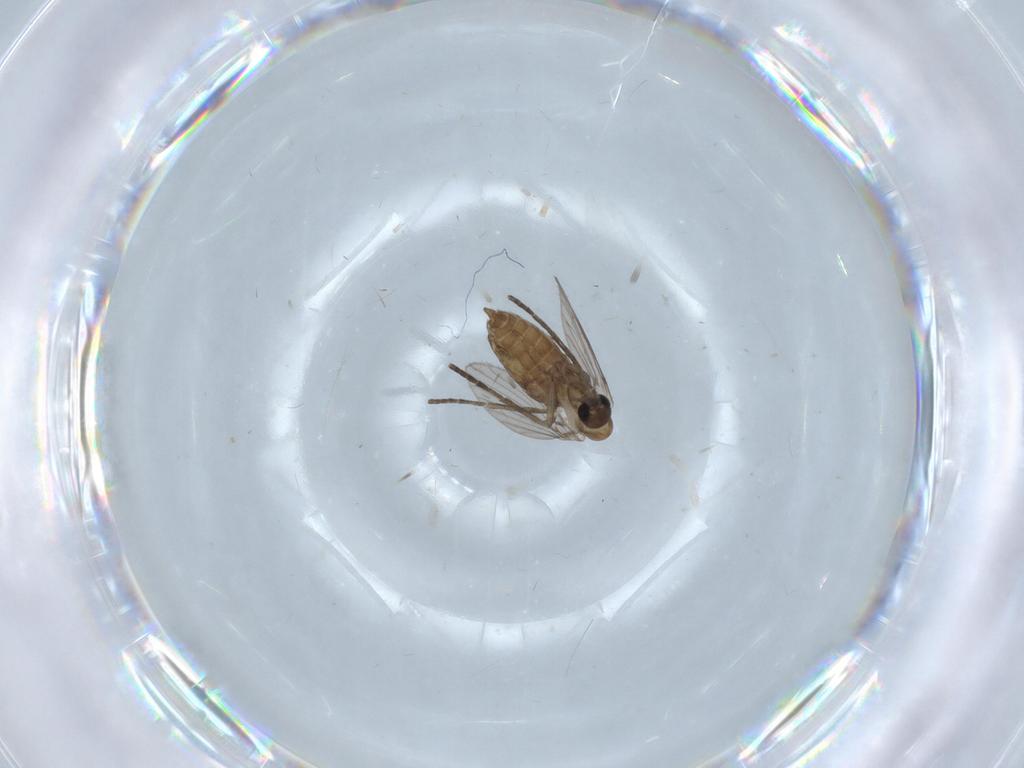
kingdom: Animalia
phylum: Arthropoda
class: Insecta
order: Diptera
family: Psychodidae
